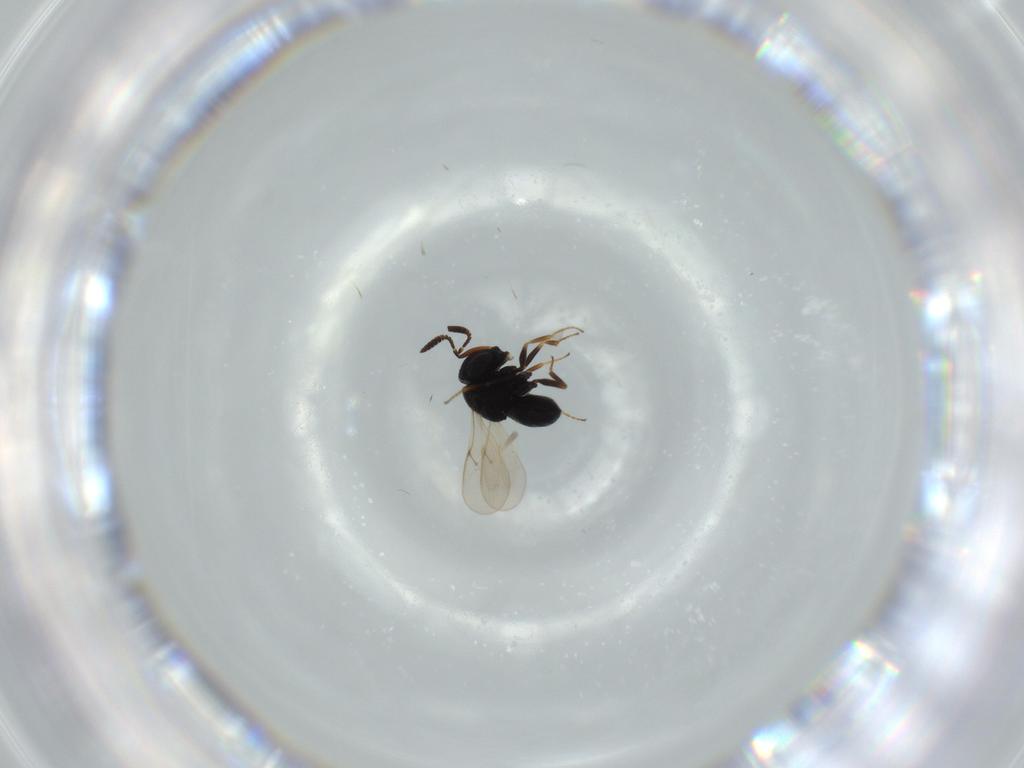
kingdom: Animalia
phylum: Arthropoda
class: Insecta
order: Hymenoptera
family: Scelionidae
